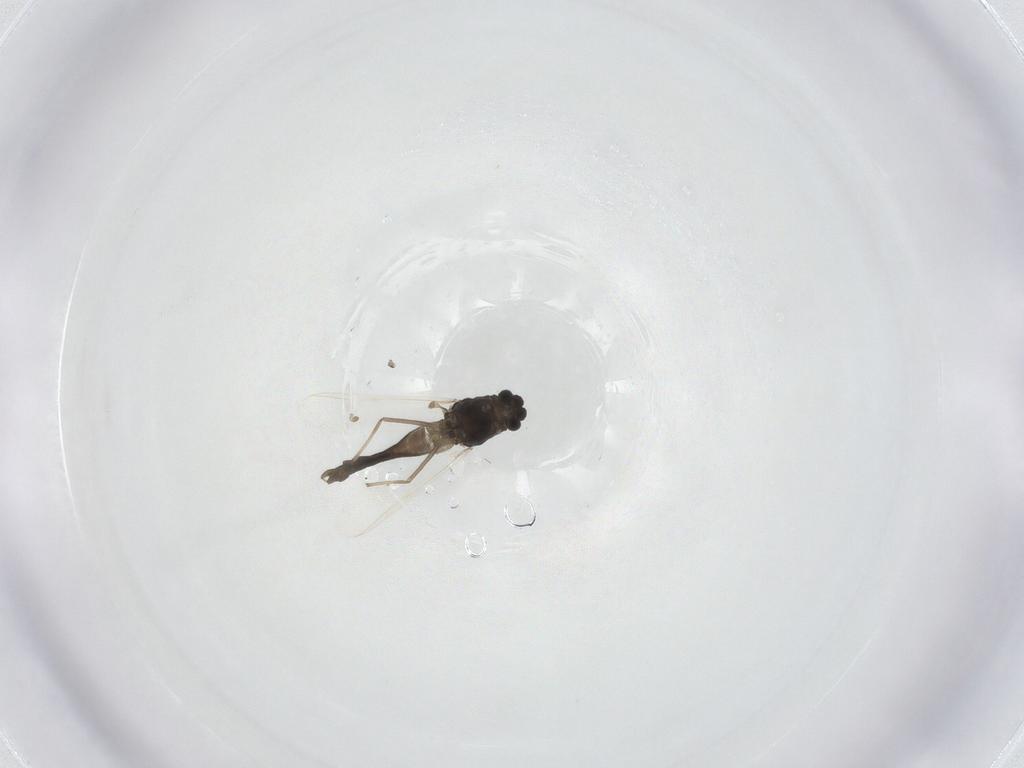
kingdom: Animalia
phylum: Arthropoda
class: Insecta
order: Diptera
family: Chironomidae
